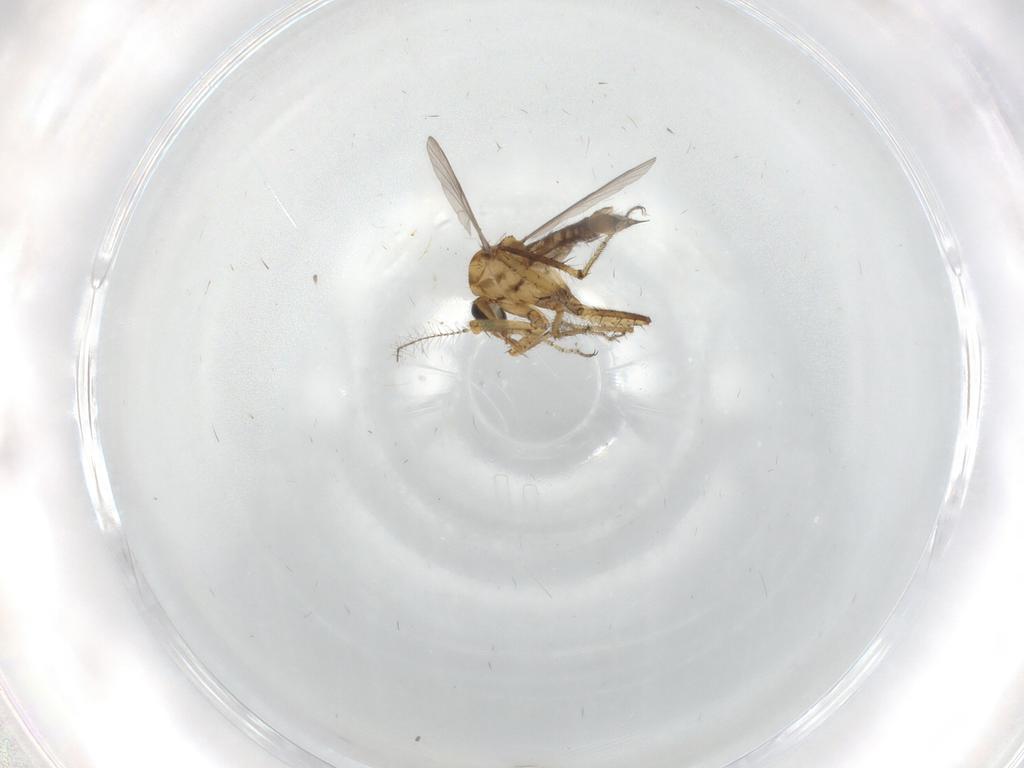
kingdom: Animalia
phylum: Arthropoda
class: Insecta
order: Diptera
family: Ceratopogonidae
